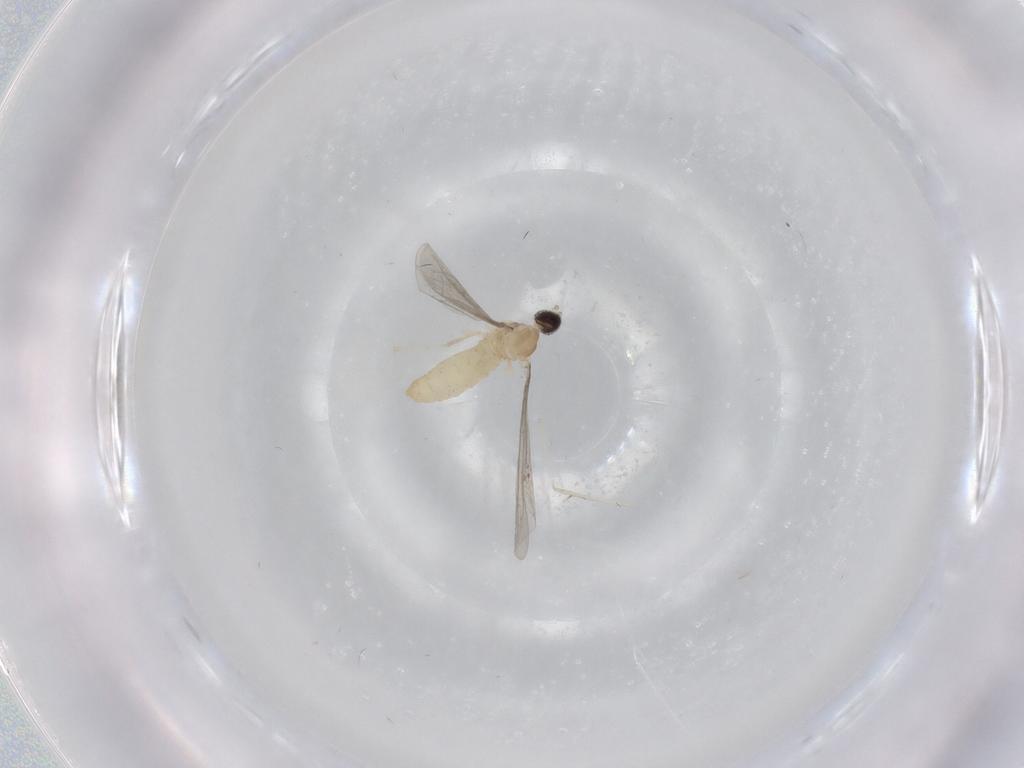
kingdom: Animalia
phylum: Arthropoda
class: Insecta
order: Diptera
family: Cecidomyiidae
